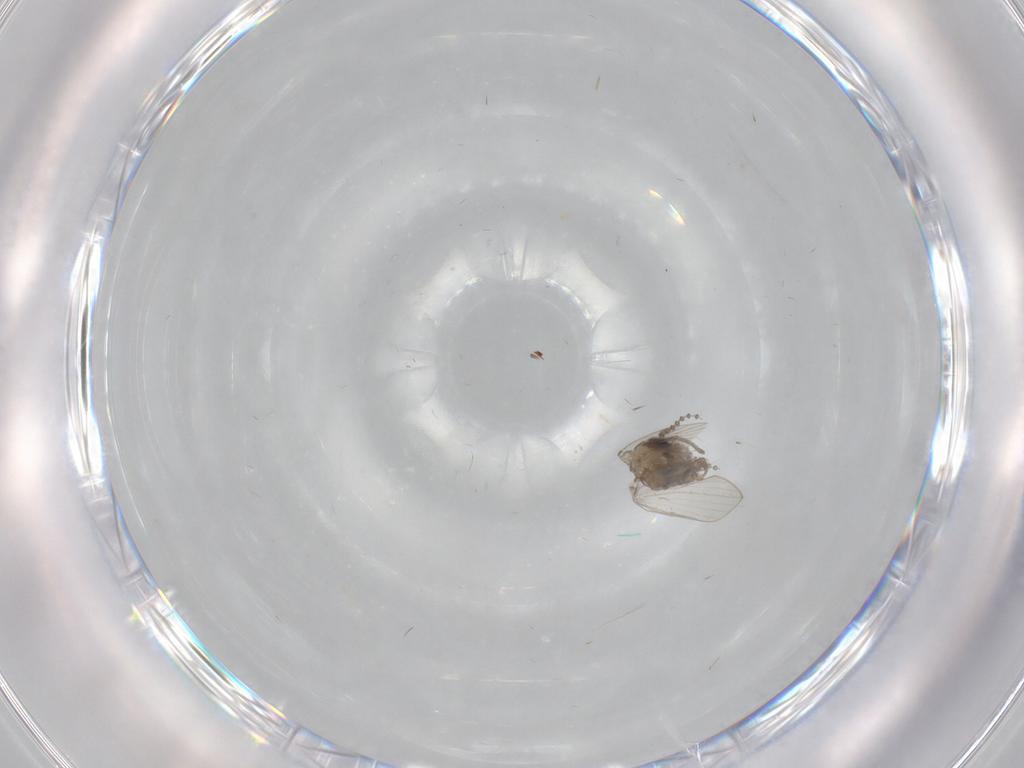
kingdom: Animalia
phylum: Arthropoda
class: Insecta
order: Diptera
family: Psychodidae
